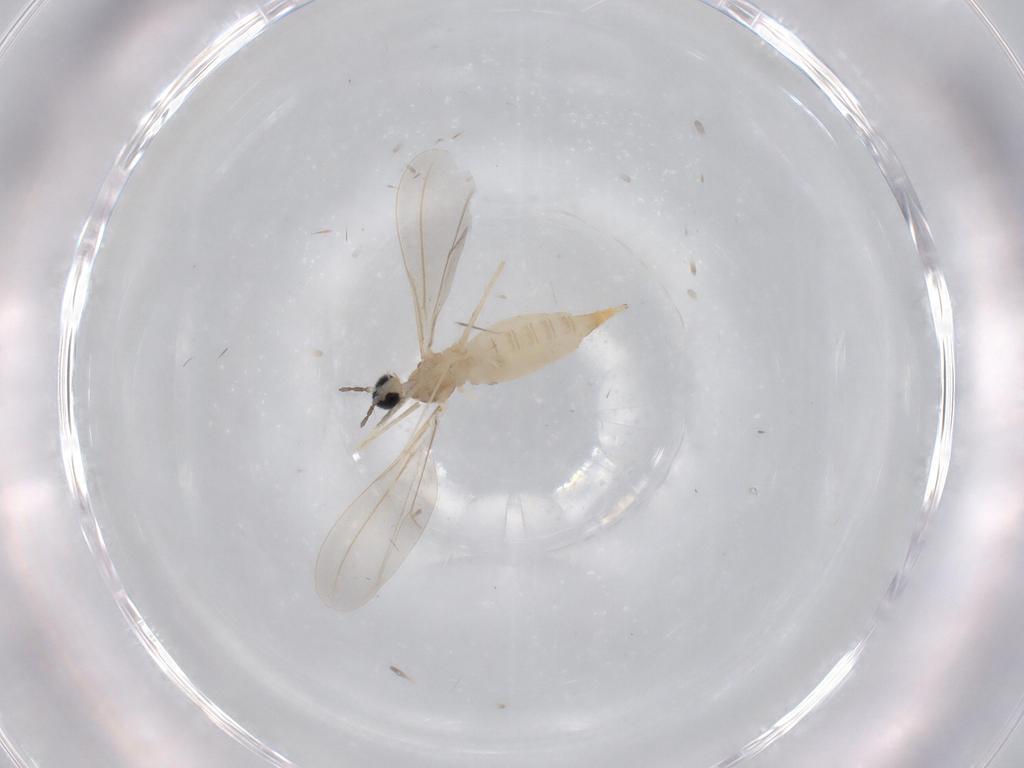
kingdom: Animalia
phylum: Arthropoda
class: Insecta
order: Diptera
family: Cecidomyiidae
